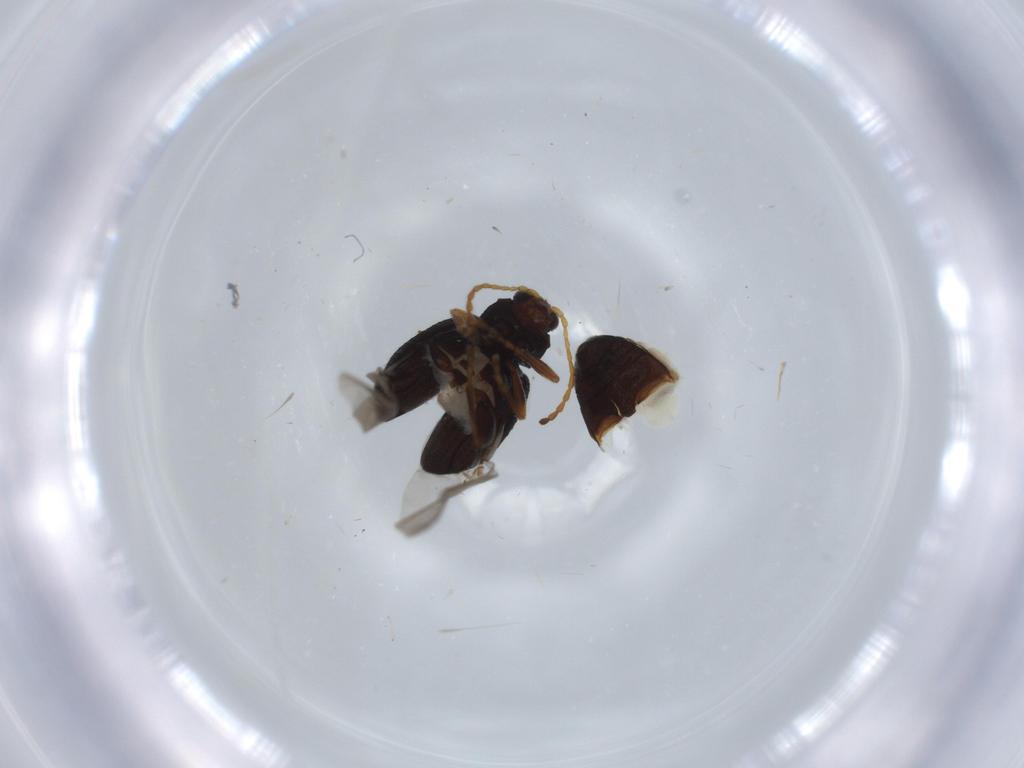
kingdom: Animalia
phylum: Arthropoda
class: Insecta
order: Coleoptera
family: Chrysomelidae
